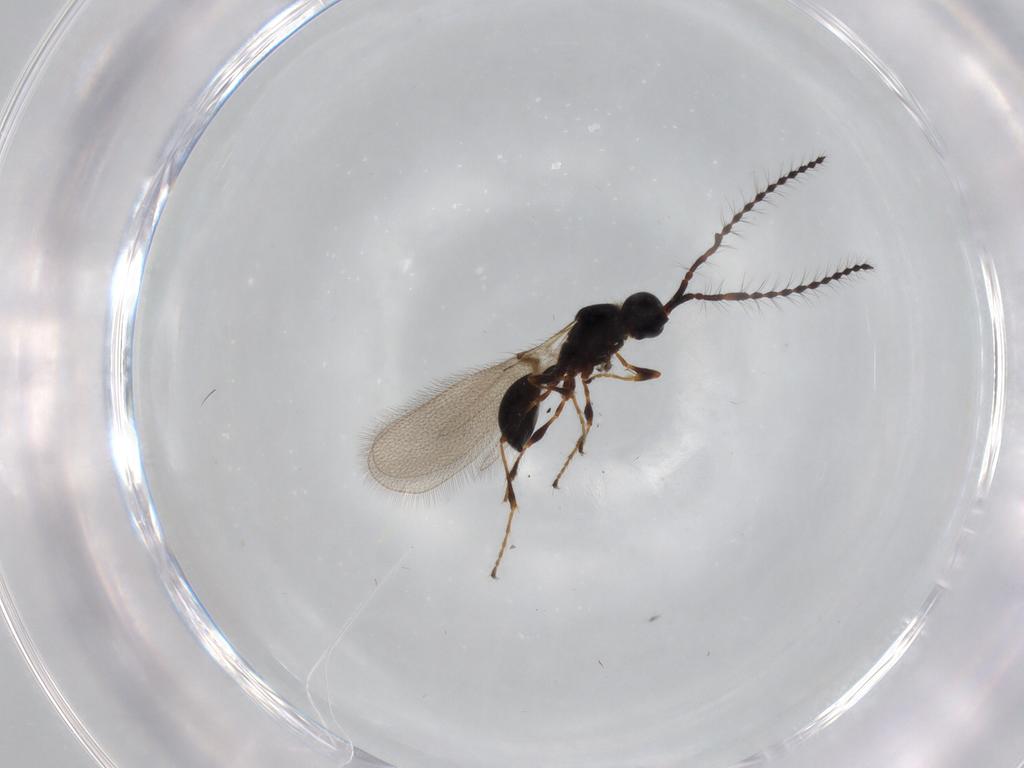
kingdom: Animalia
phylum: Arthropoda
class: Insecta
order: Hymenoptera
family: Diapriidae
